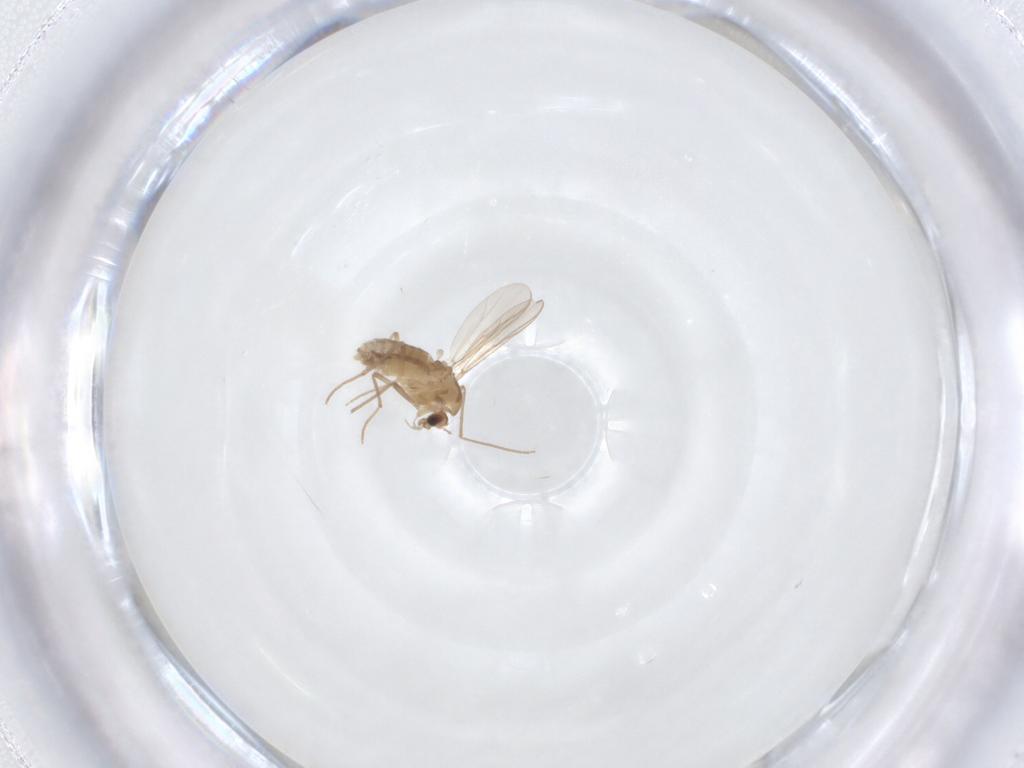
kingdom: Animalia
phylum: Arthropoda
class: Insecta
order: Diptera
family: Chironomidae
